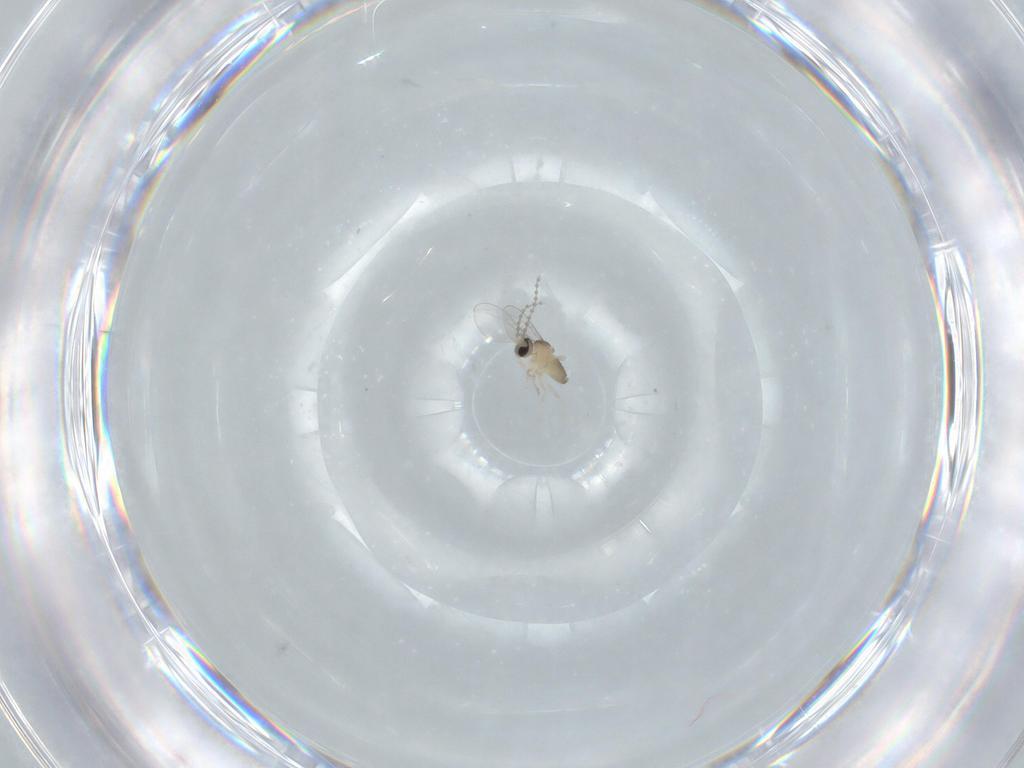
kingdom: Animalia
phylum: Arthropoda
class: Insecta
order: Diptera
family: Cecidomyiidae
